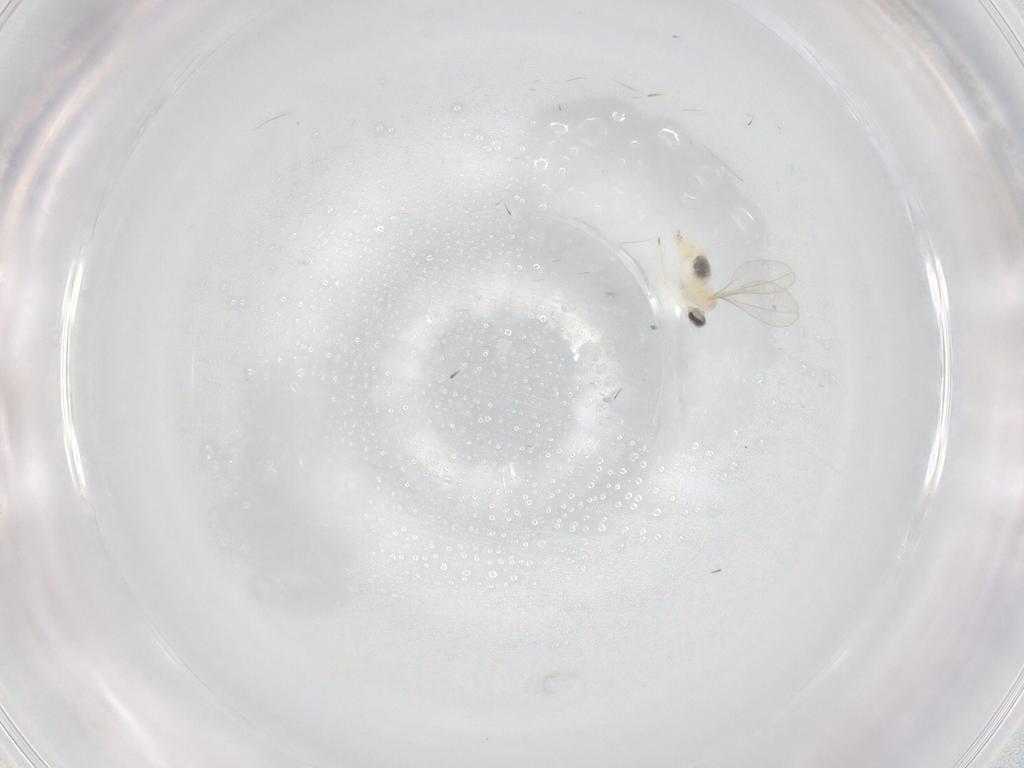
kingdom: Animalia
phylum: Arthropoda
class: Insecta
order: Diptera
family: Cecidomyiidae
